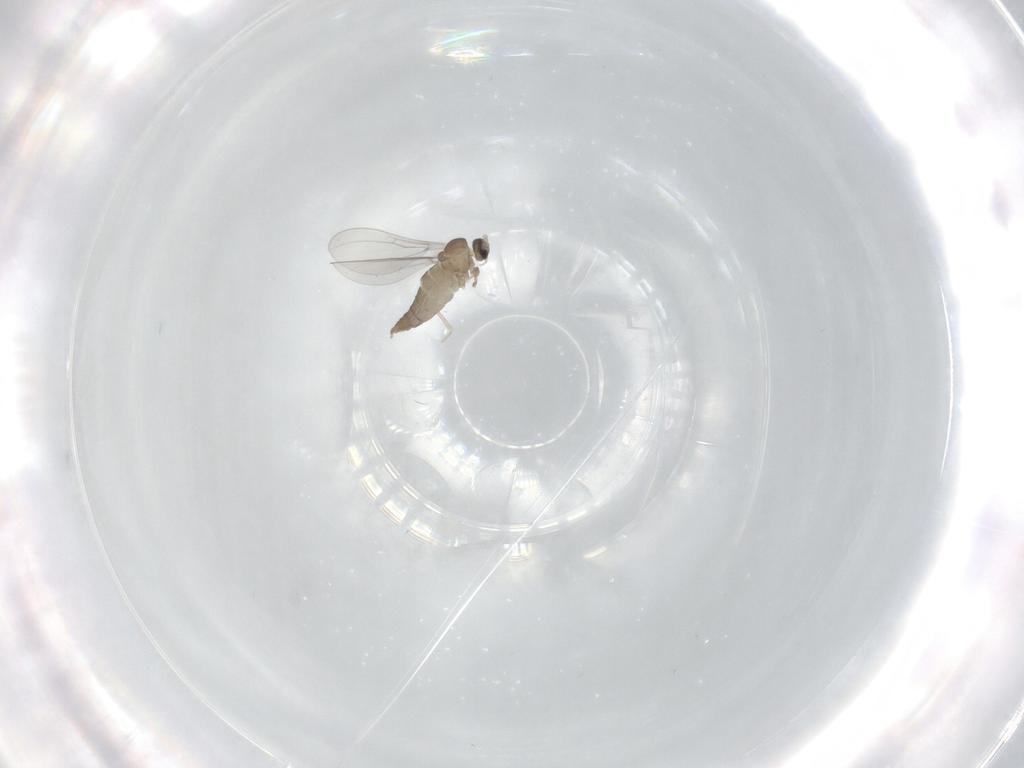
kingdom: Animalia
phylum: Arthropoda
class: Insecta
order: Diptera
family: Cecidomyiidae
